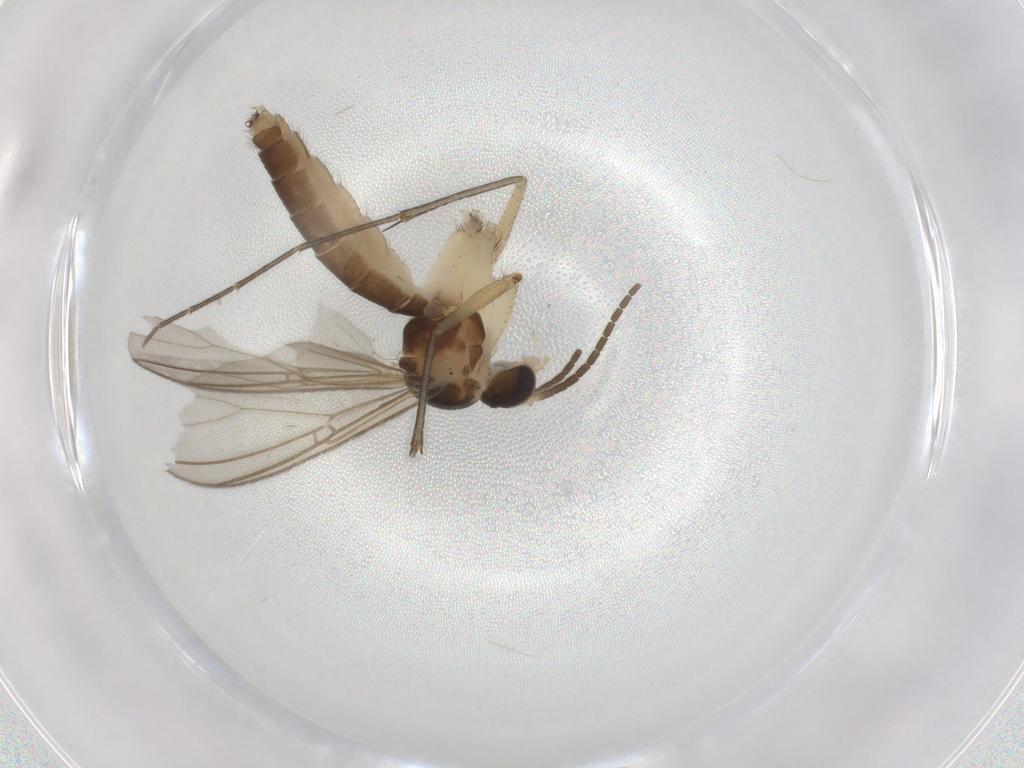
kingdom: Animalia
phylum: Arthropoda
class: Insecta
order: Diptera
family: Mycetophilidae
